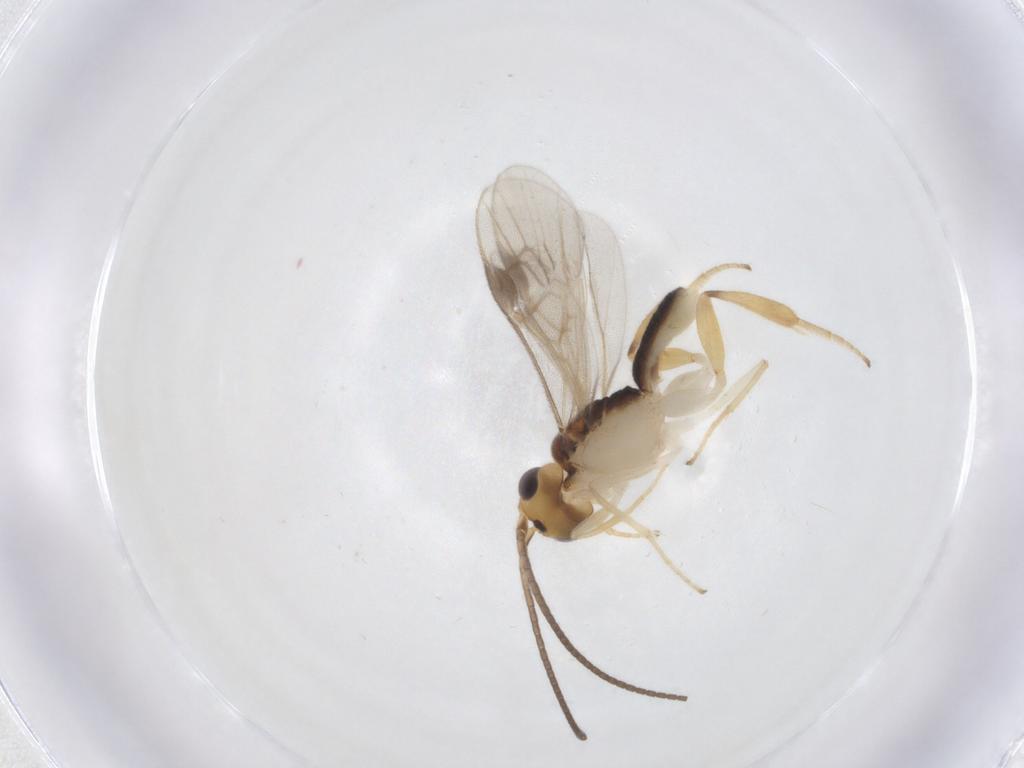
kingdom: Animalia
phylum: Arthropoda
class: Insecta
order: Hymenoptera
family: Braconidae
